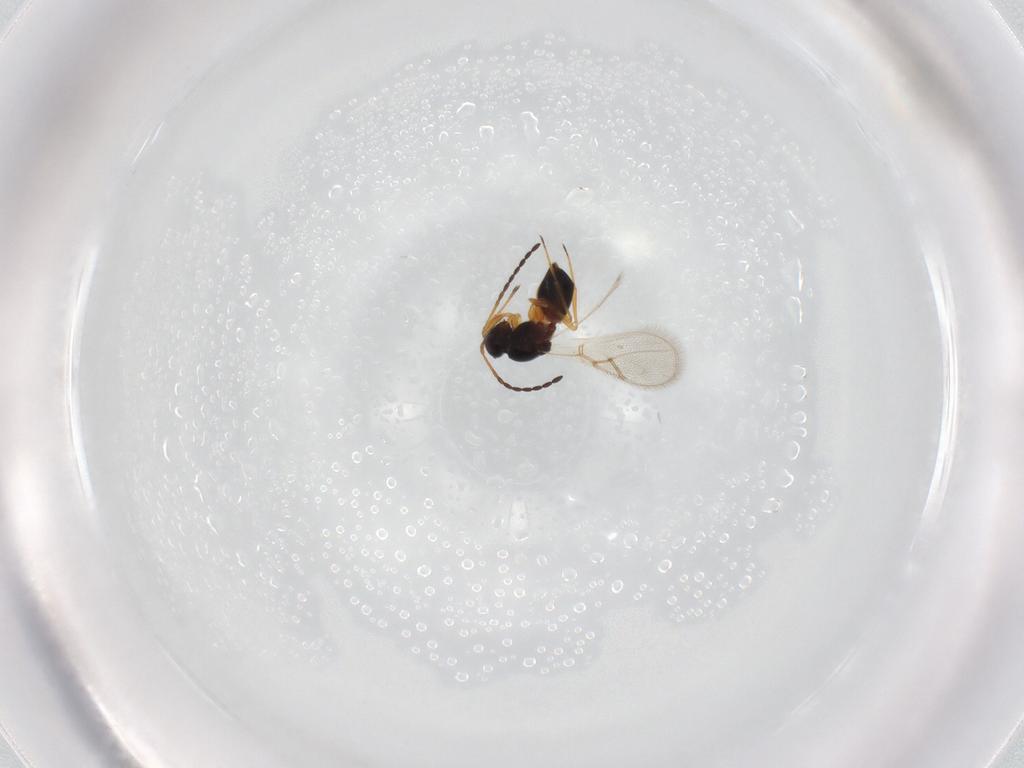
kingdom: Animalia
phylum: Arthropoda
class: Insecta
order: Hymenoptera
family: Figitidae
